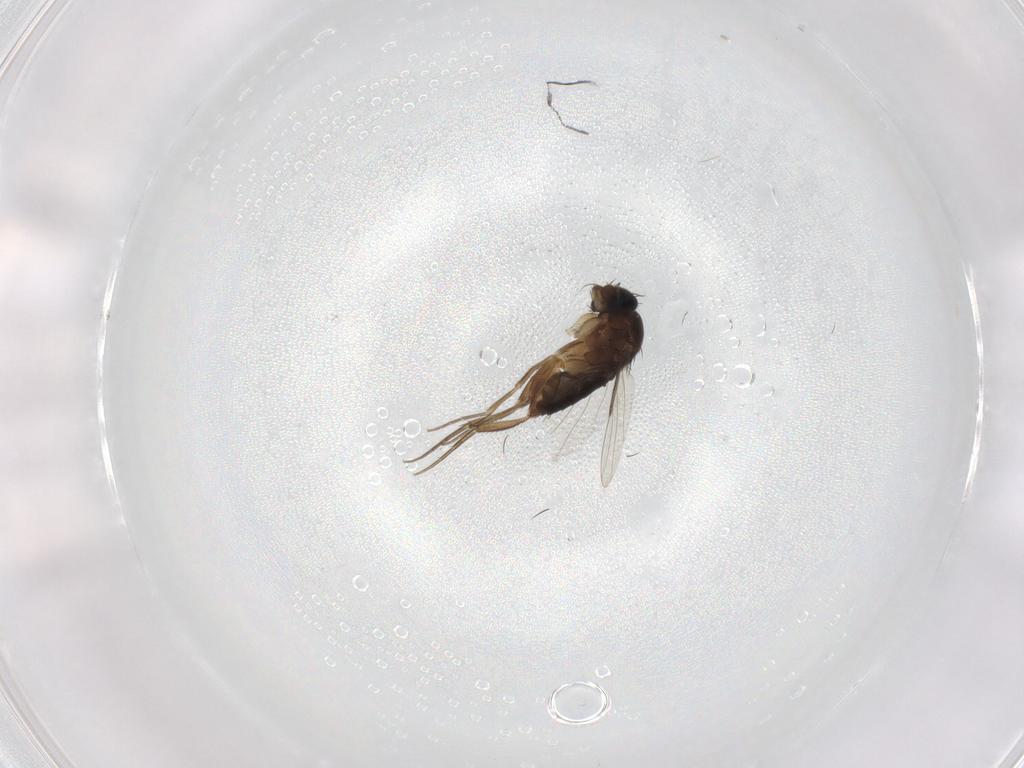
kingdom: Animalia
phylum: Arthropoda
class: Insecta
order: Diptera
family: Phoridae
